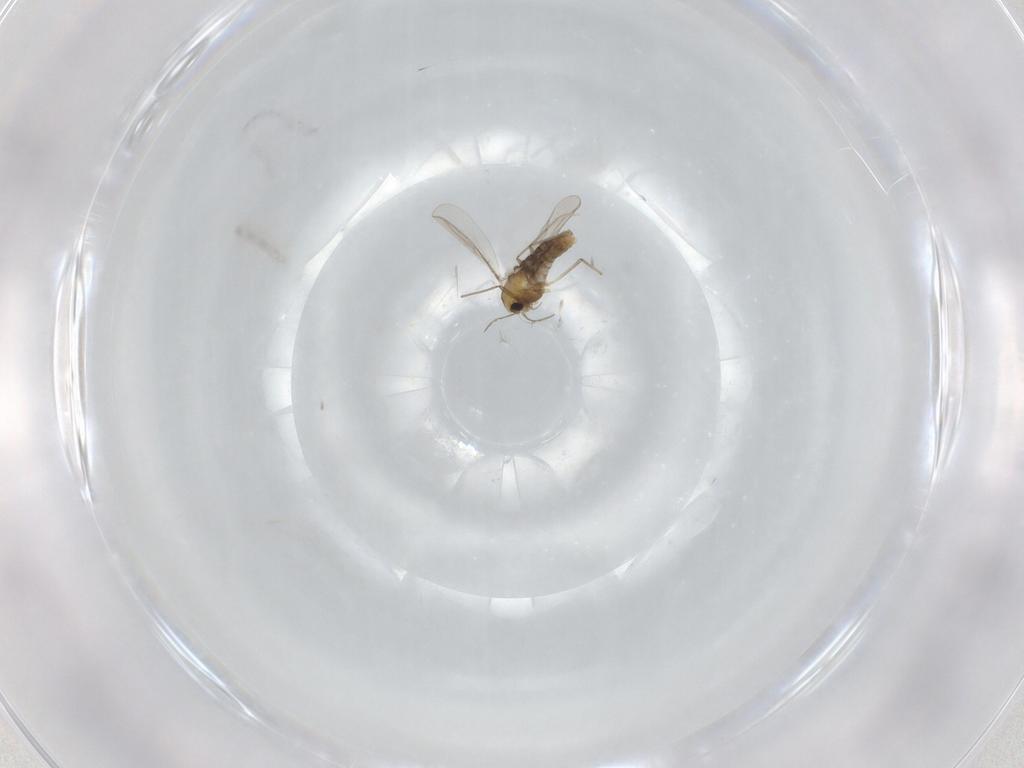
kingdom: Animalia
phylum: Arthropoda
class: Insecta
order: Diptera
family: Chironomidae
